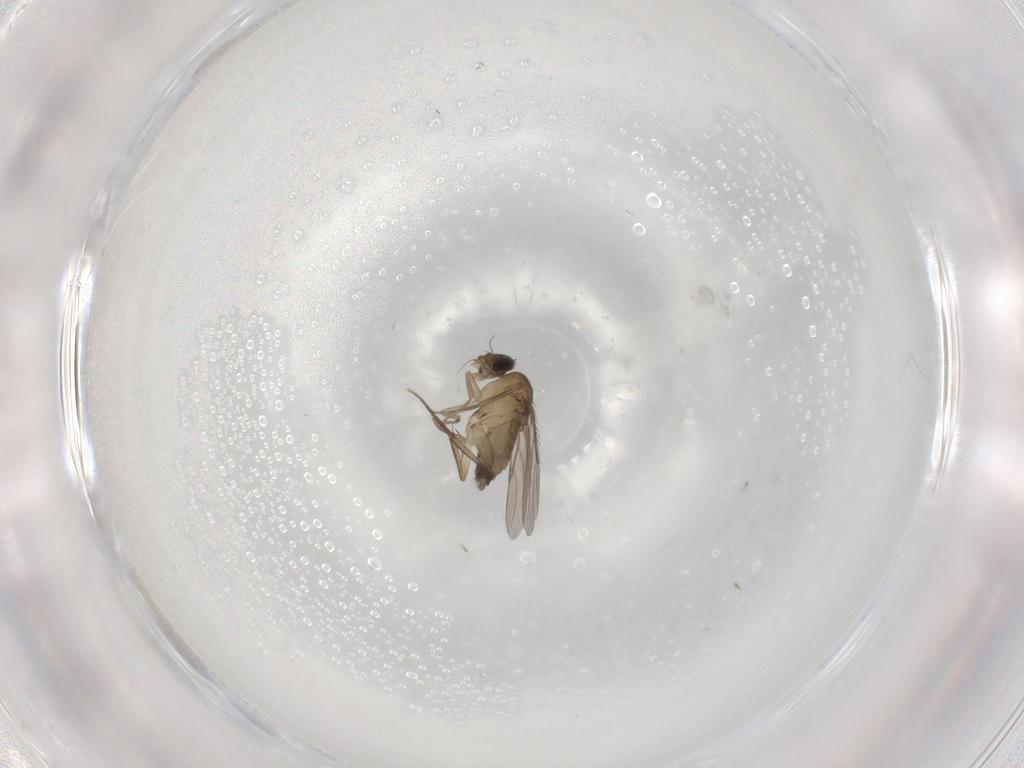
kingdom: Animalia
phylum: Arthropoda
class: Insecta
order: Diptera
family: Phoridae
